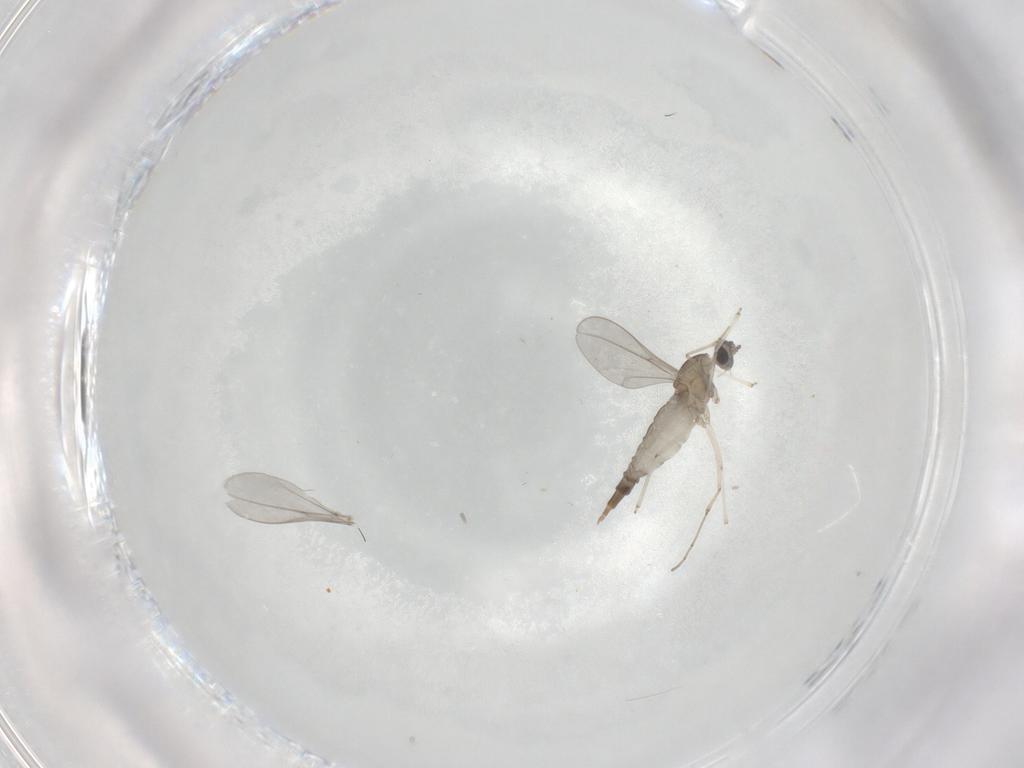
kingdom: Animalia
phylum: Arthropoda
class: Insecta
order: Diptera
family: Cecidomyiidae
